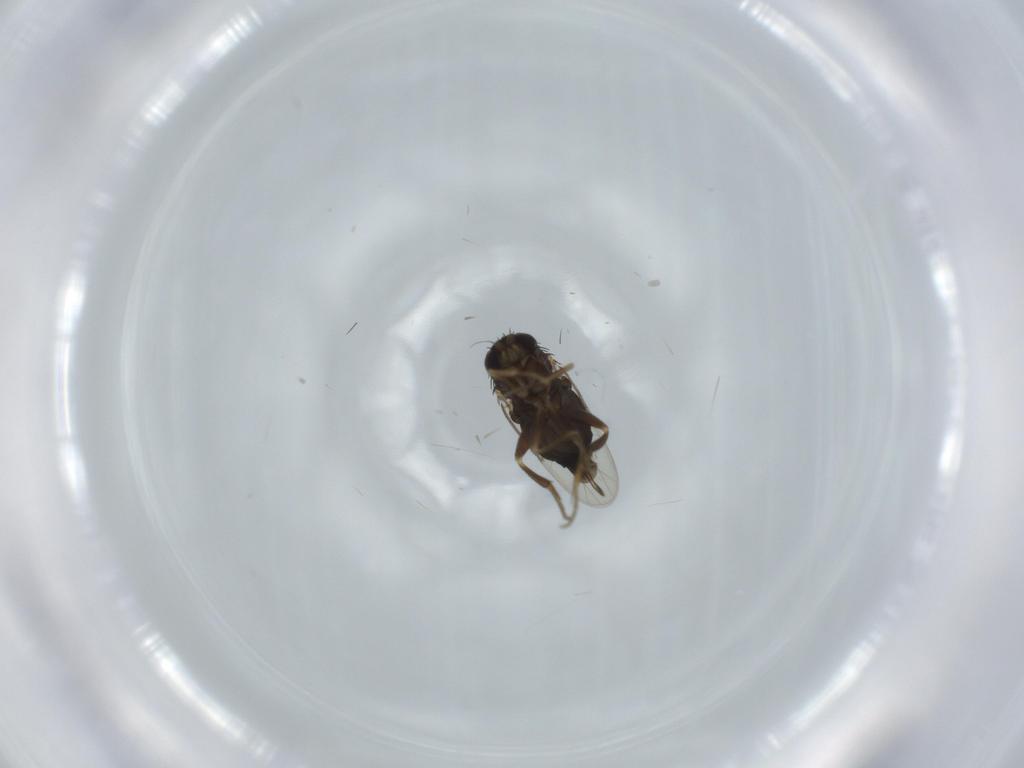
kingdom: Animalia
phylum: Arthropoda
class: Insecta
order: Diptera
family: Phoridae
